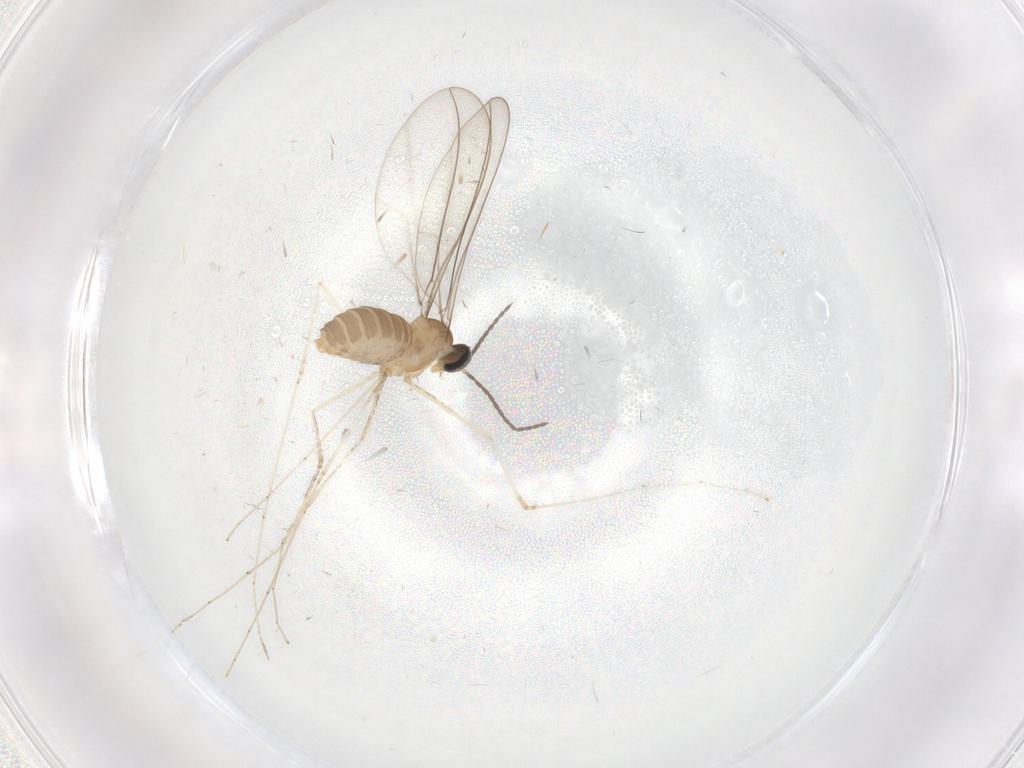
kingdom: Animalia
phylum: Arthropoda
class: Insecta
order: Diptera
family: Cecidomyiidae
